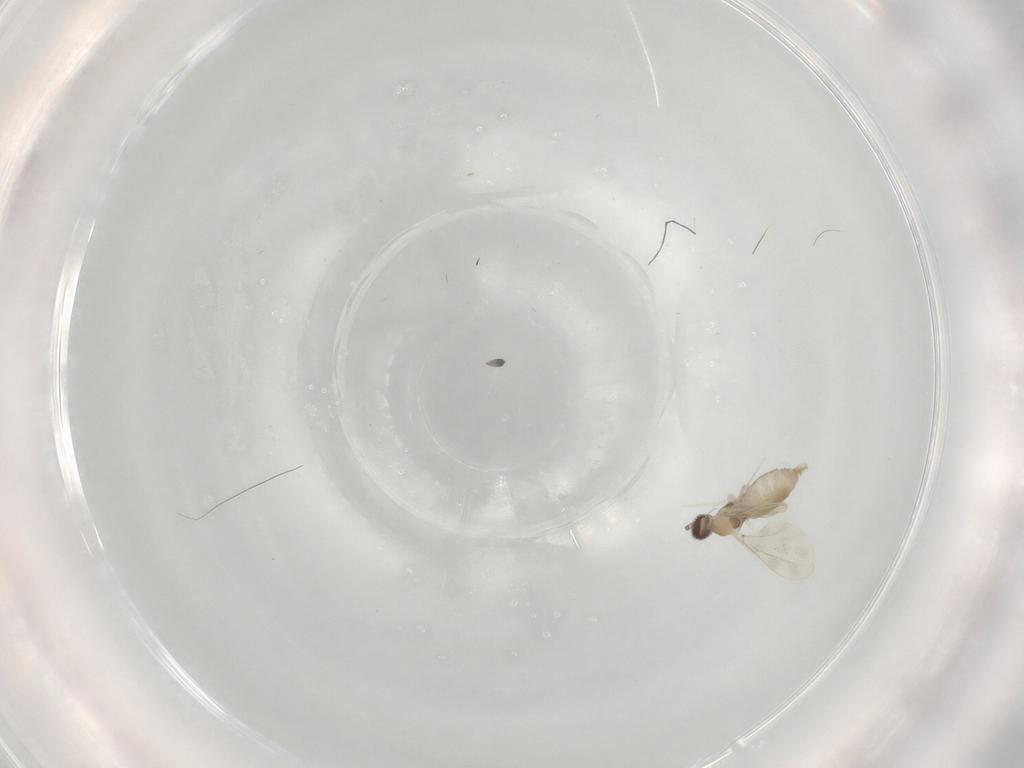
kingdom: Animalia
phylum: Arthropoda
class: Insecta
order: Diptera
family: Cecidomyiidae
